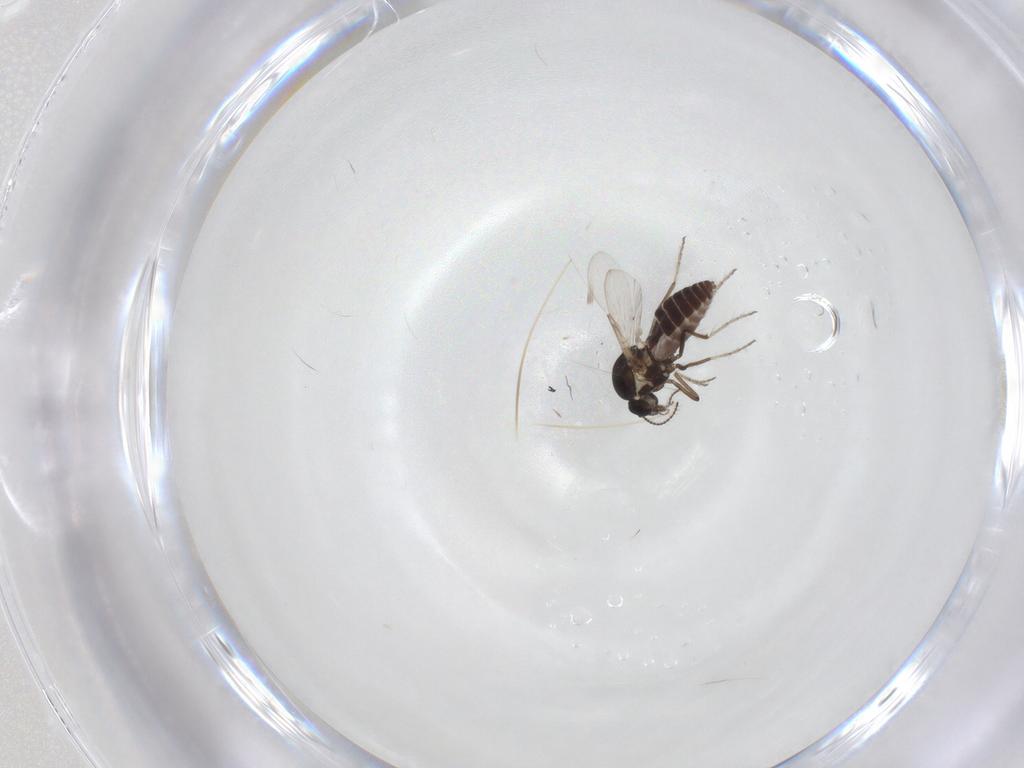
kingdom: Animalia
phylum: Arthropoda
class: Insecta
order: Diptera
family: Ceratopogonidae
